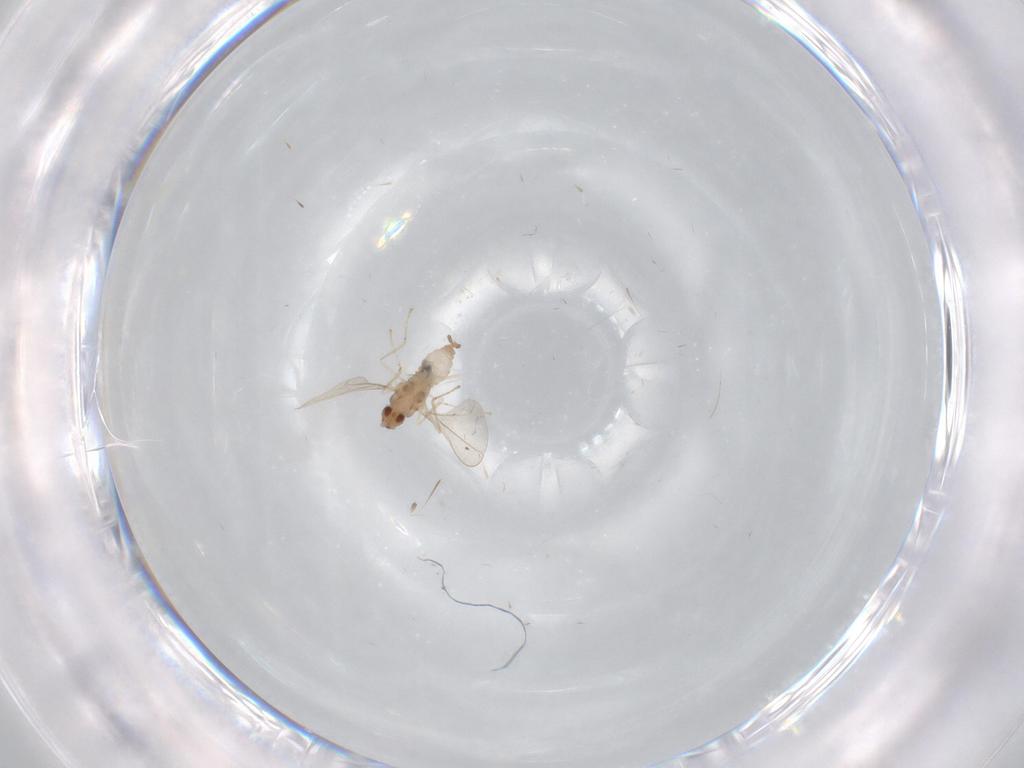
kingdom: Animalia
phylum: Arthropoda
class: Insecta
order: Diptera
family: Cecidomyiidae
